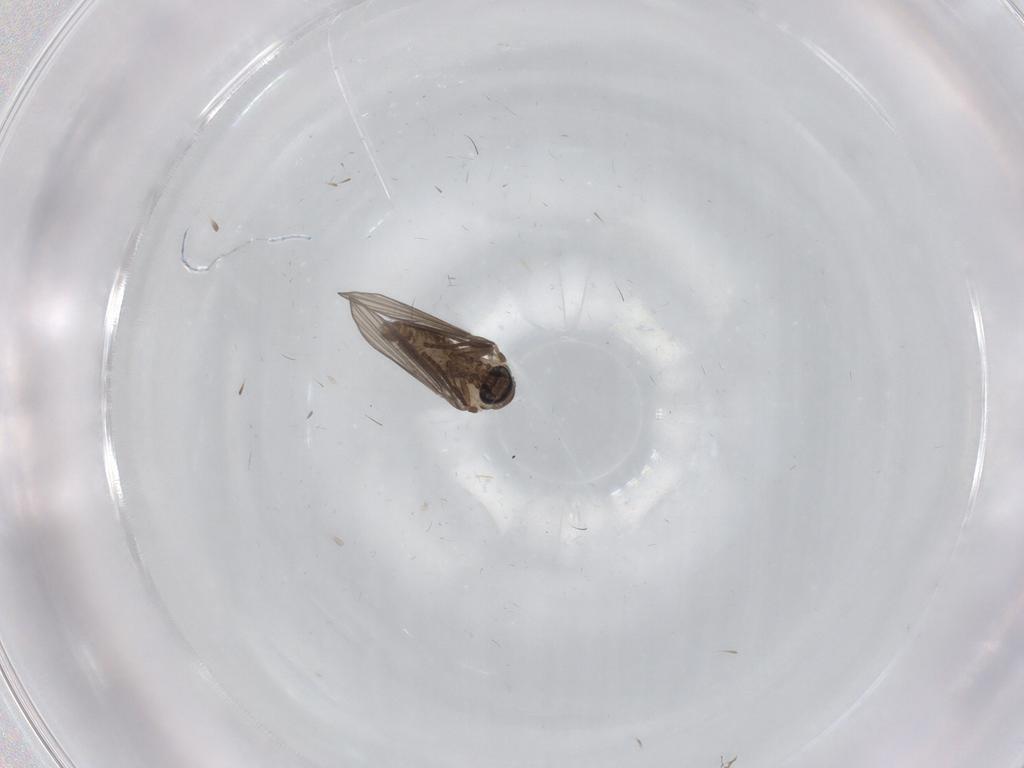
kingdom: Animalia
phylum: Arthropoda
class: Insecta
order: Diptera
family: Psychodidae
